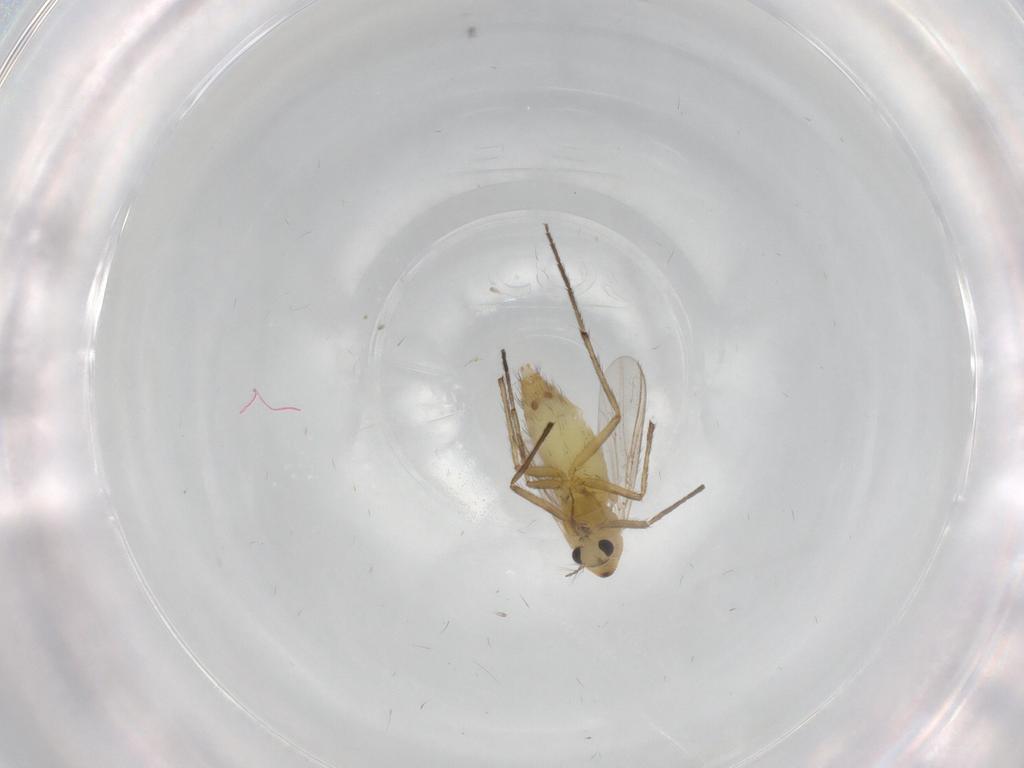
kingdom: Animalia
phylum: Arthropoda
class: Insecta
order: Diptera
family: Chironomidae
